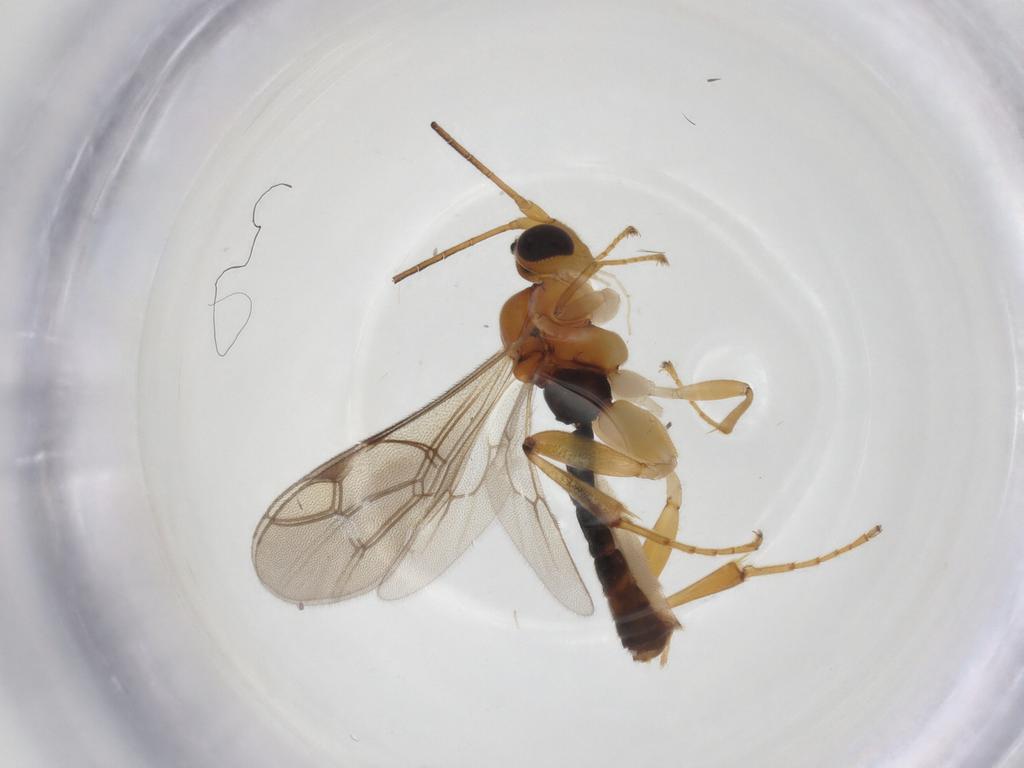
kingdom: Animalia
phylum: Arthropoda
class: Insecta
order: Hymenoptera
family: Ichneumonidae
